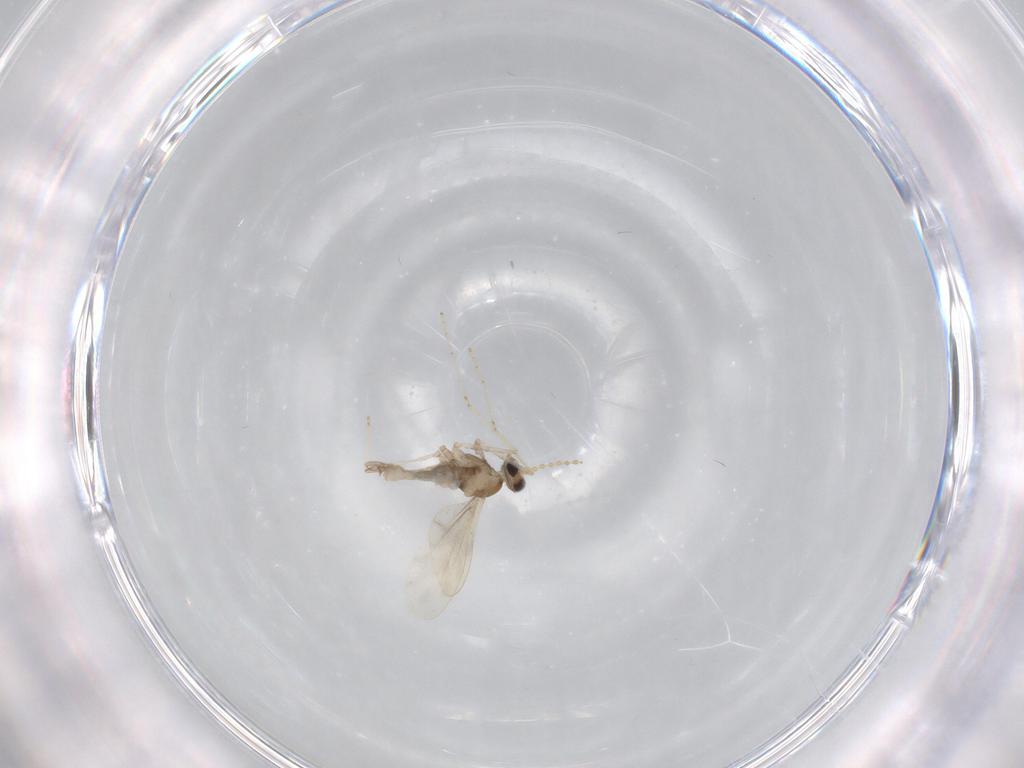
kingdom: Animalia
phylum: Arthropoda
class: Insecta
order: Diptera
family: Cecidomyiidae
